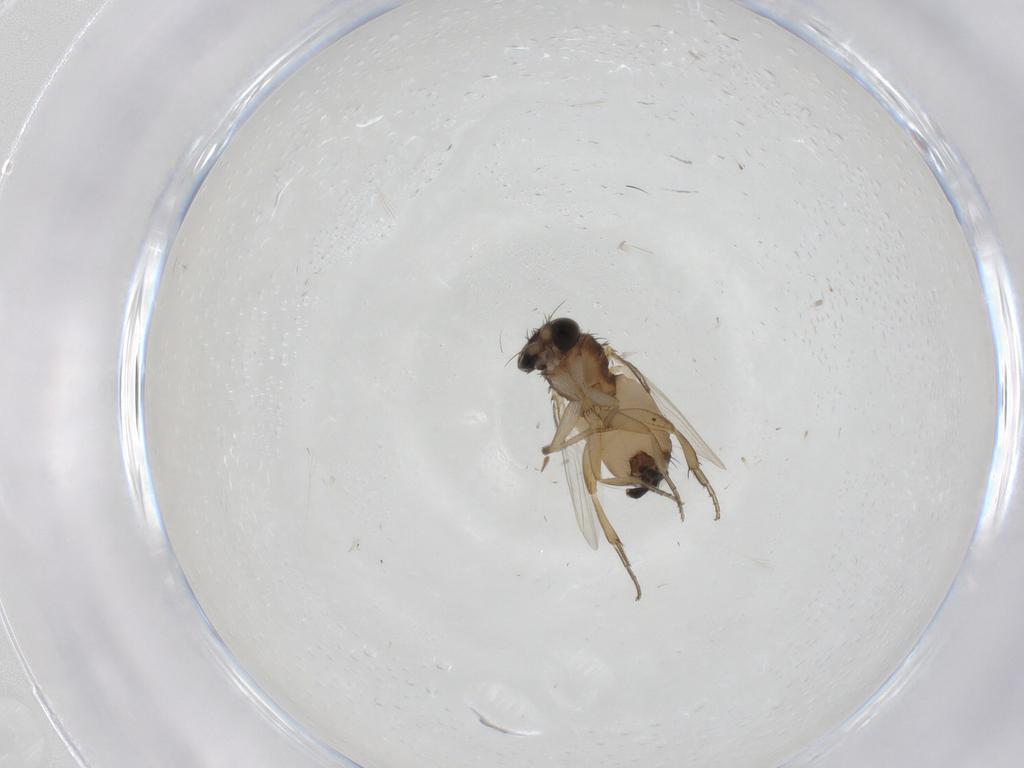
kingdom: Animalia
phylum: Arthropoda
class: Insecta
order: Diptera
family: Phoridae
